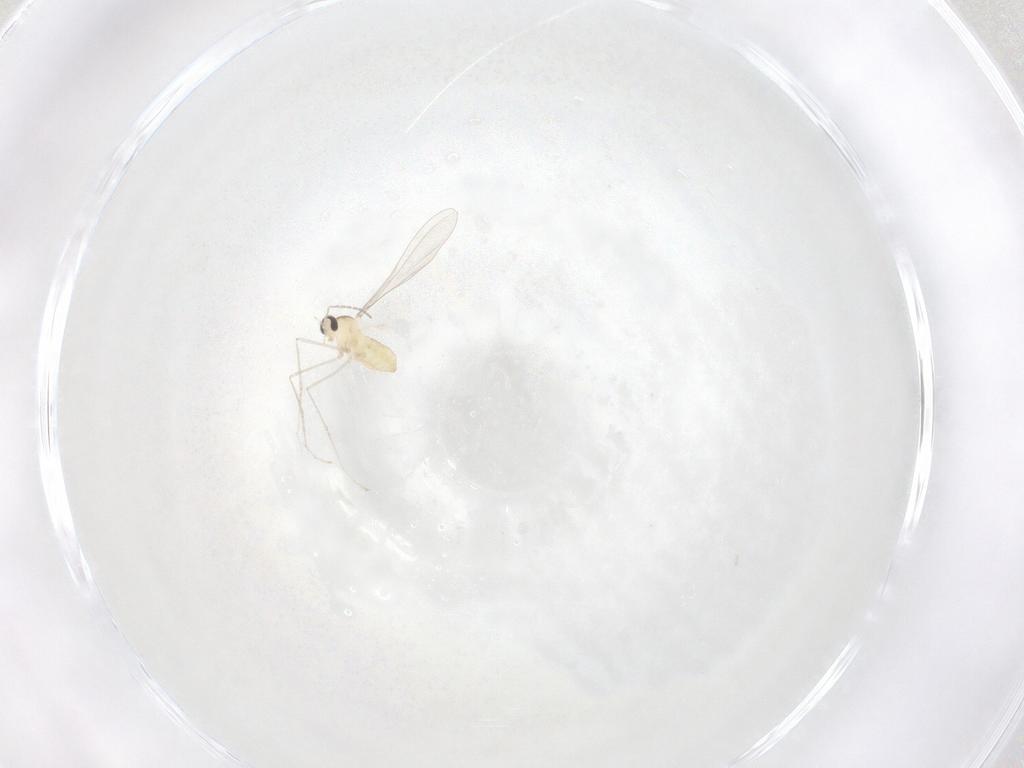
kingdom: Animalia
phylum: Arthropoda
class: Insecta
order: Diptera
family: Cecidomyiidae
